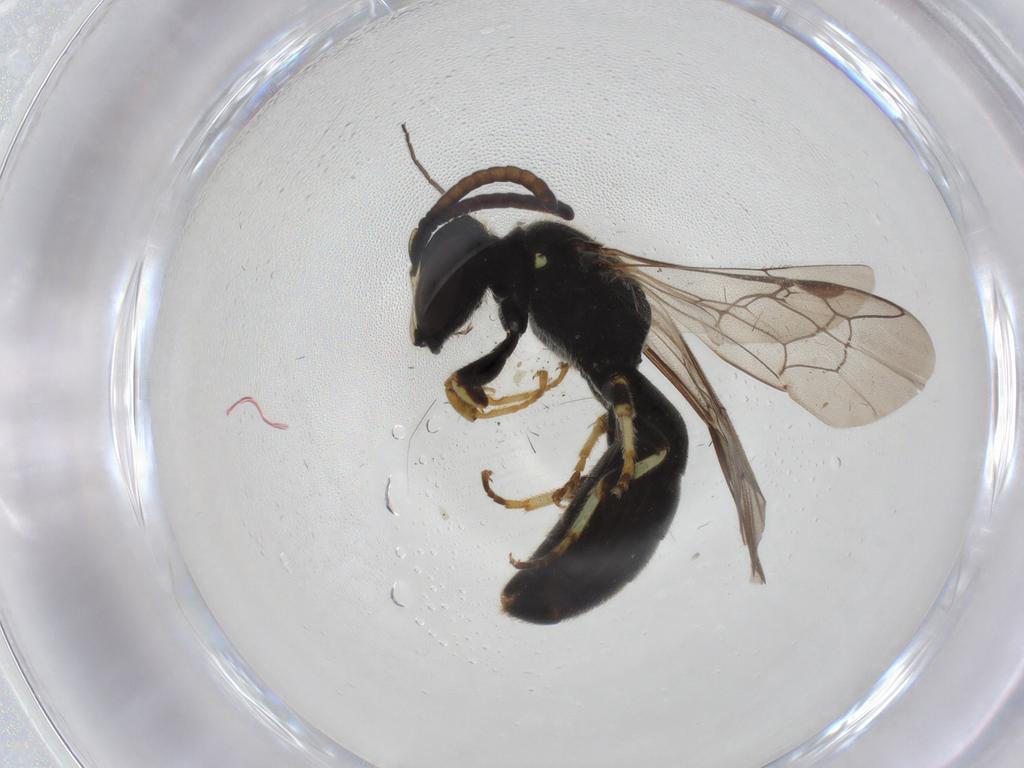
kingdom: Animalia
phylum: Arthropoda
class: Insecta
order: Hymenoptera
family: Colletidae
